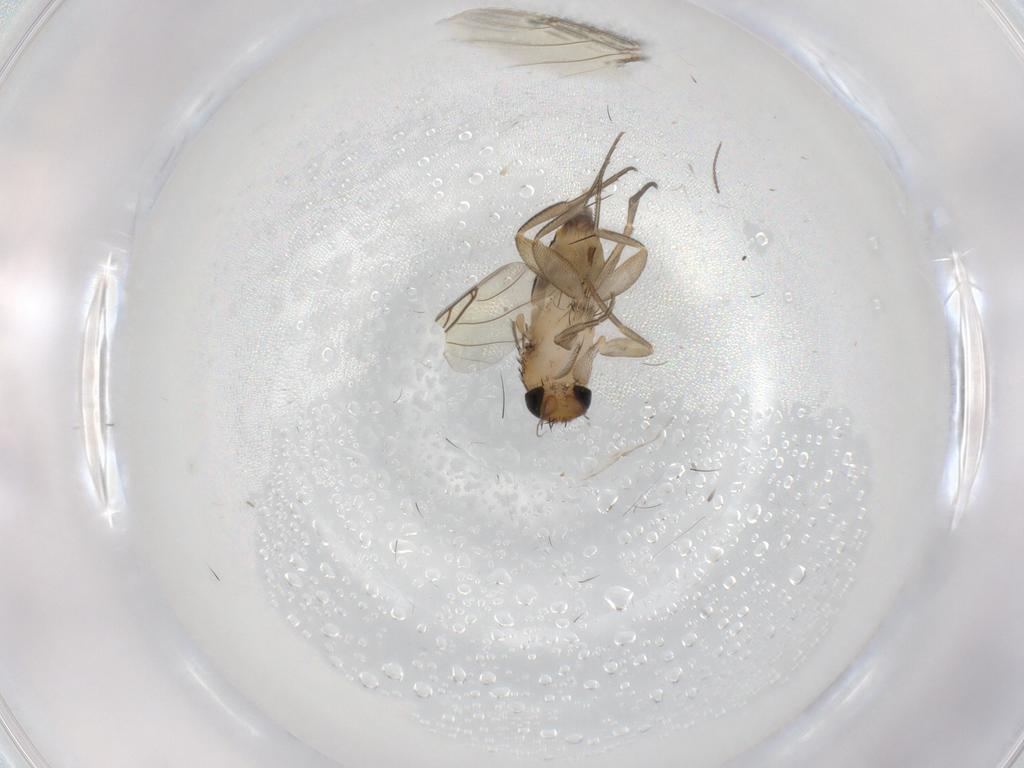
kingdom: Animalia
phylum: Arthropoda
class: Insecta
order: Diptera
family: Phoridae
